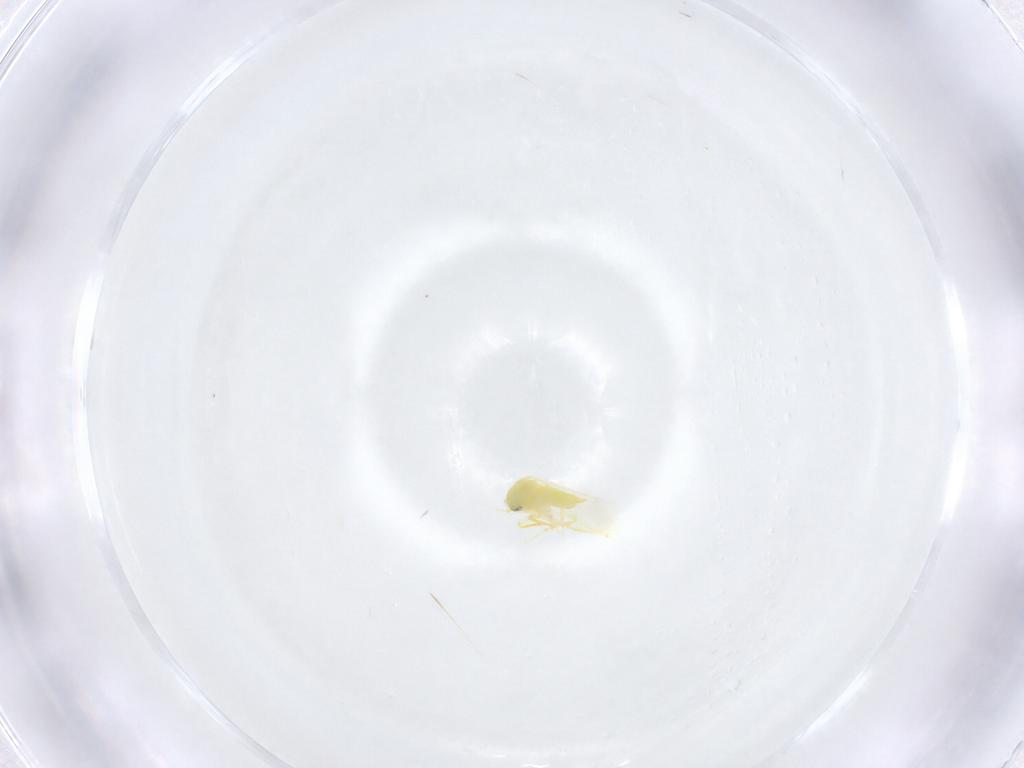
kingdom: Animalia
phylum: Arthropoda
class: Insecta
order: Hemiptera
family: Aleyrodidae
